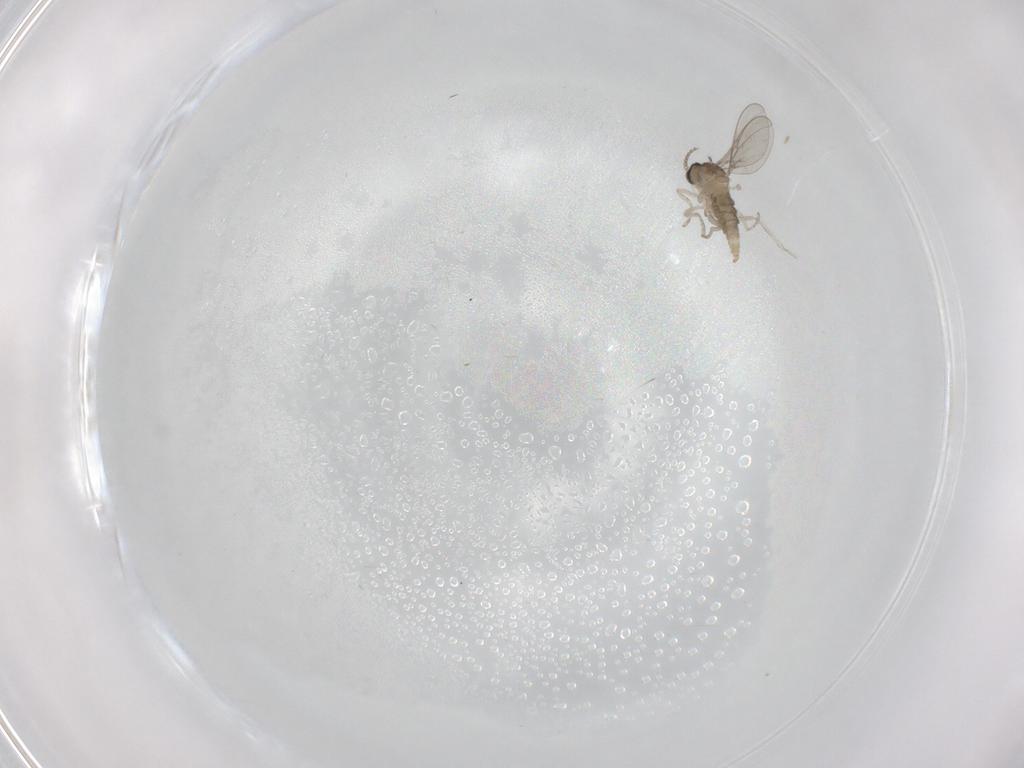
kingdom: Animalia
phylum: Arthropoda
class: Insecta
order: Diptera
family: Cecidomyiidae
